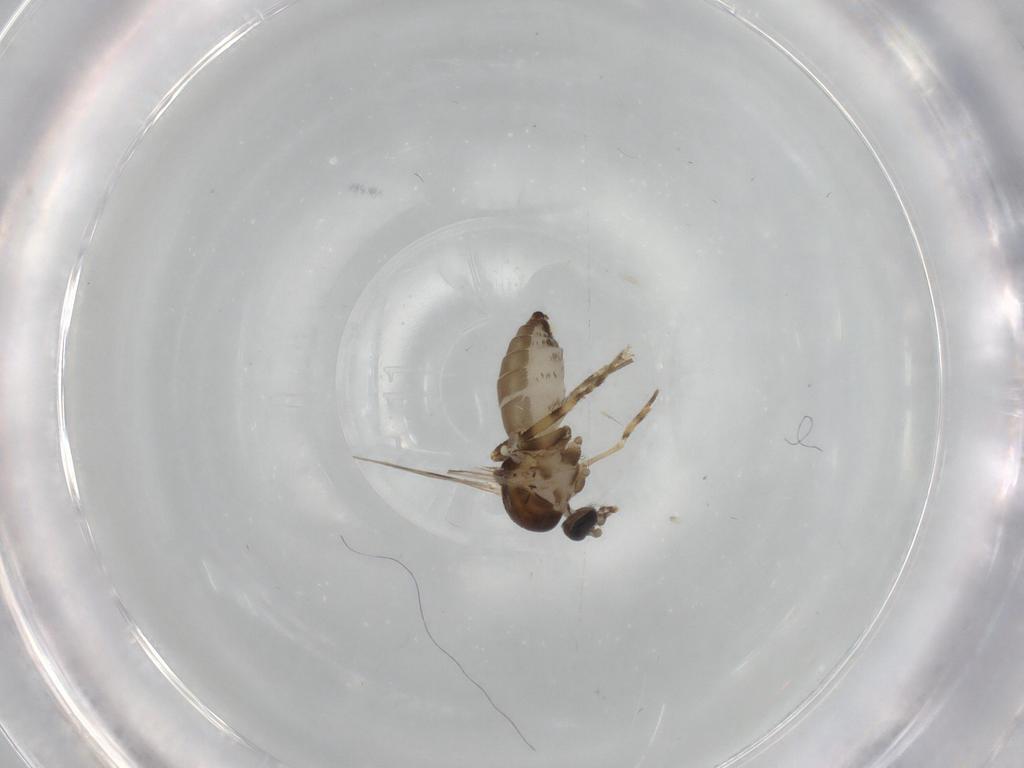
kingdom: Animalia
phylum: Arthropoda
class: Insecta
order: Diptera
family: Ceratopogonidae
